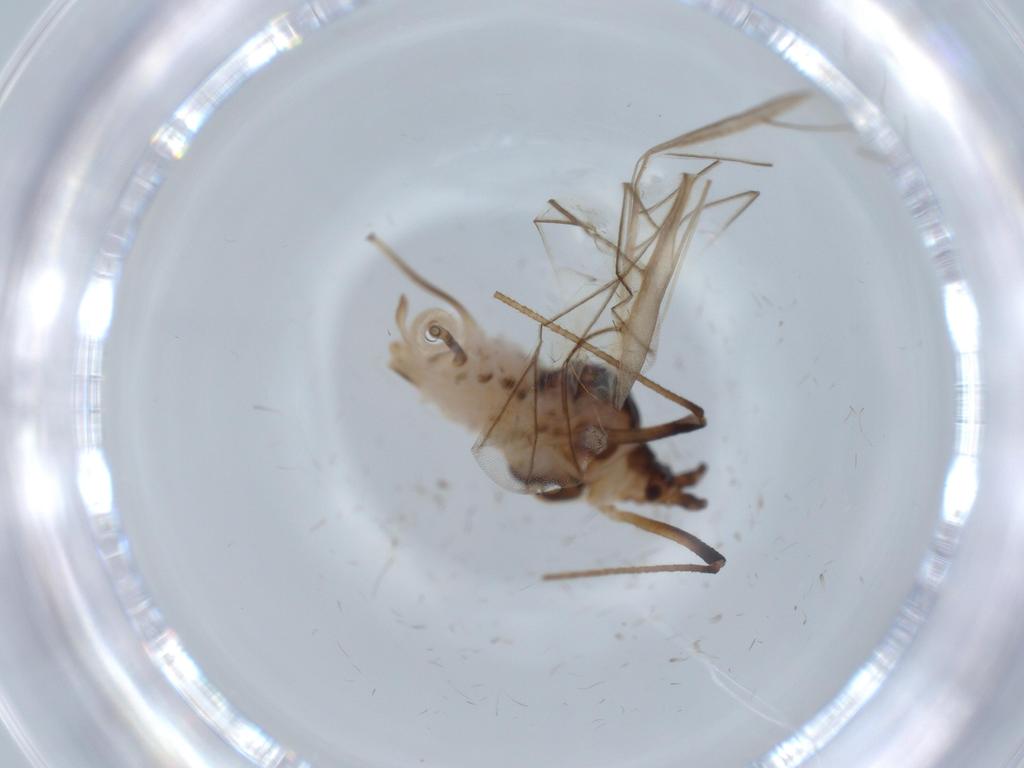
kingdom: Animalia
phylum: Arthropoda
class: Insecta
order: Hemiptera
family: Aphididae
